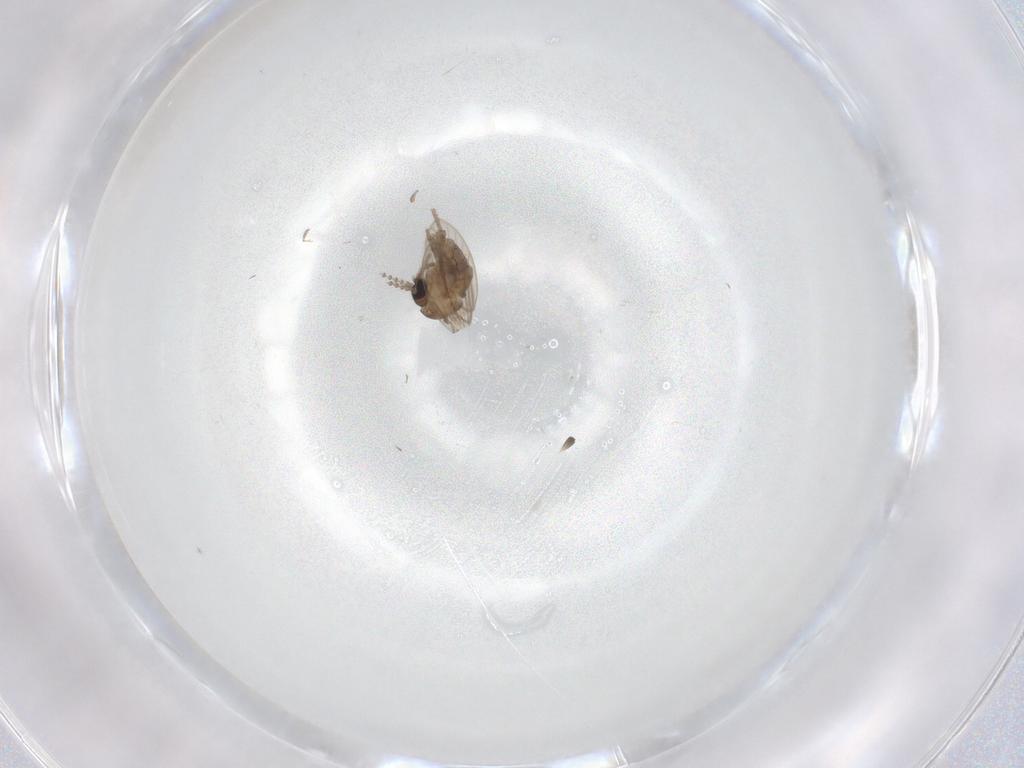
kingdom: Animalia
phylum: Arthropoda
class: Insecta
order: Diptera
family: Psychodidae
